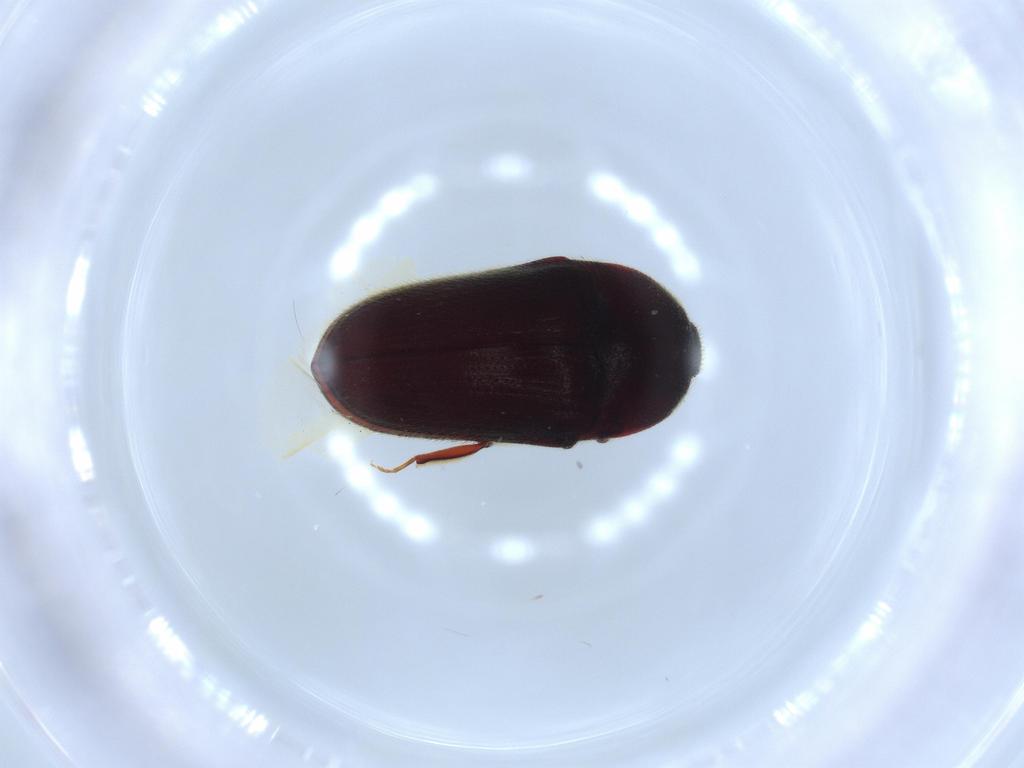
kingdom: Animalia
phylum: Arthropoda
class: Insecta
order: Coleoptera
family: Throscidae
